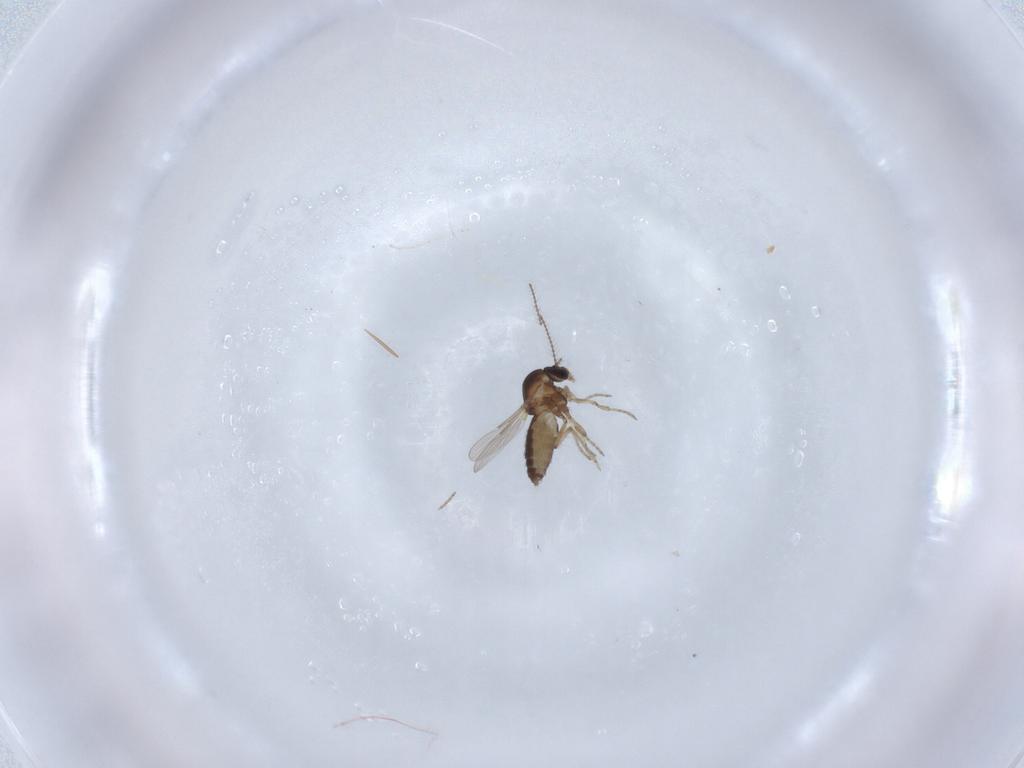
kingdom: Animalia
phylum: Arthropoda
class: Insecta
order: Diptera
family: Ceratopogonidae
